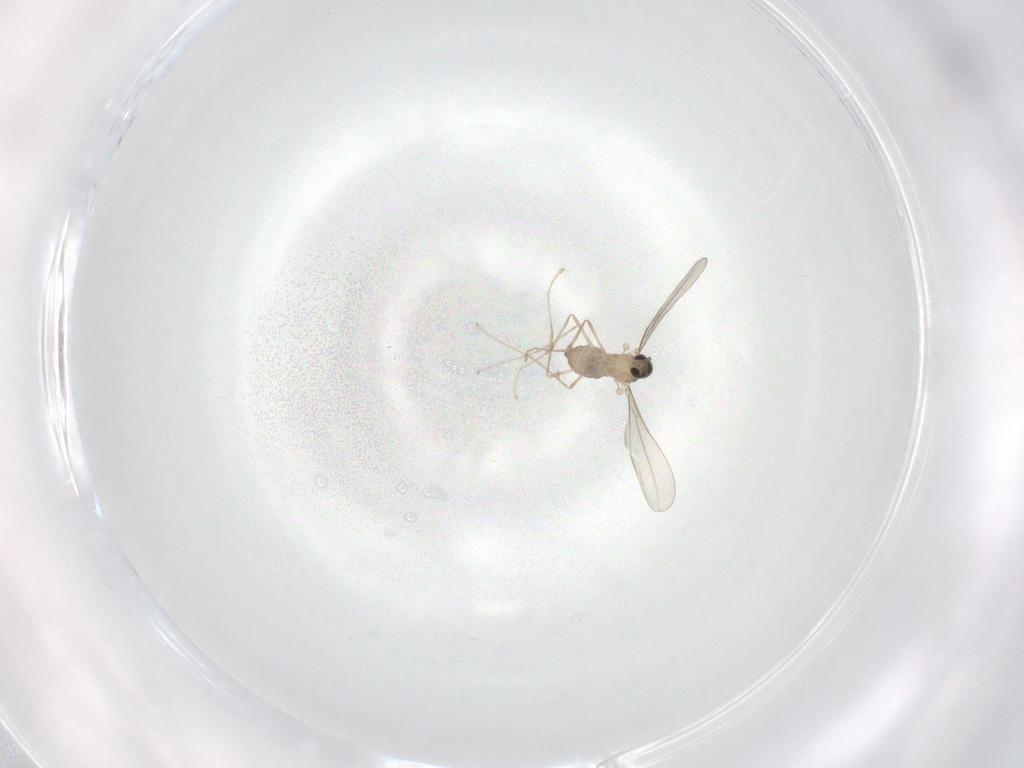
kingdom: Animalia
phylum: Arthropoda
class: Insecta
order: Diptera
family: Cecidomyiidae
